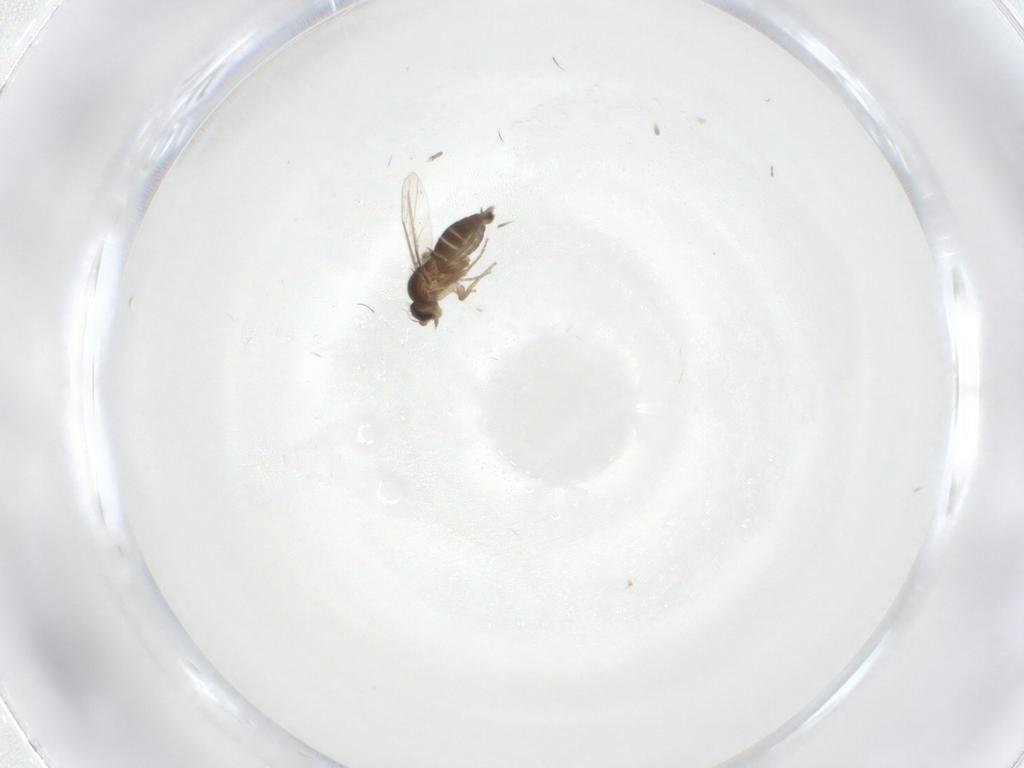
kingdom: Animalia
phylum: Arthropoda
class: Insecta
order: Diptera
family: Phoridae
